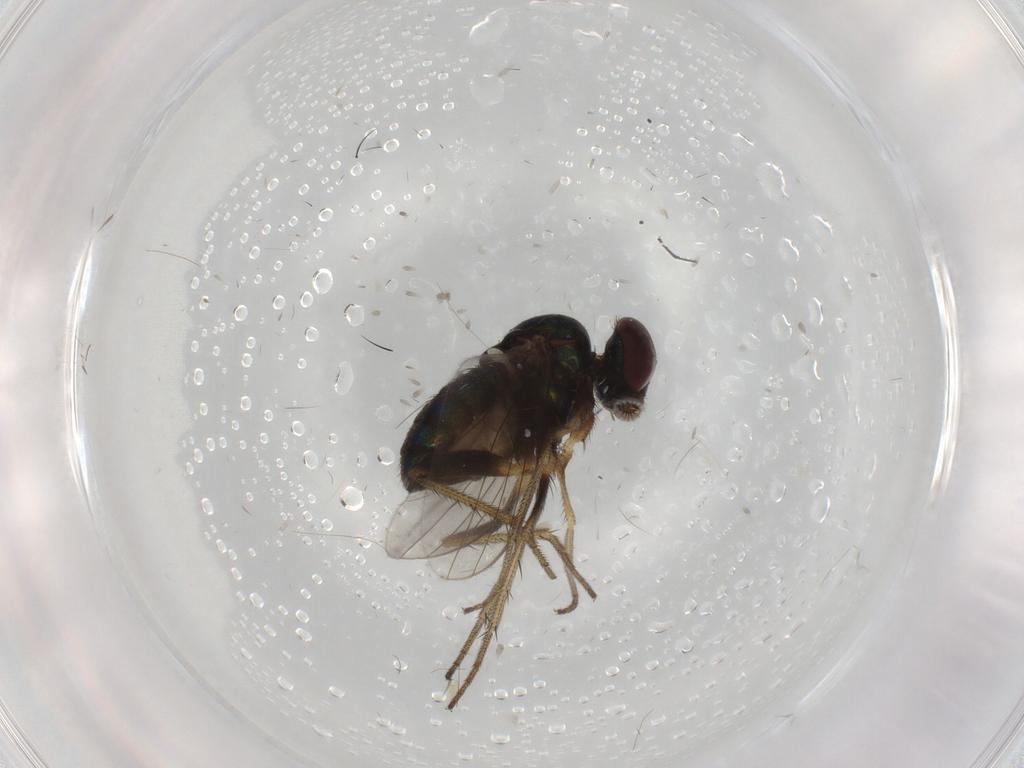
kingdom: Animalia
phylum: Arthropoda
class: Insecta
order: Diptera
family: Dolichopodidae
